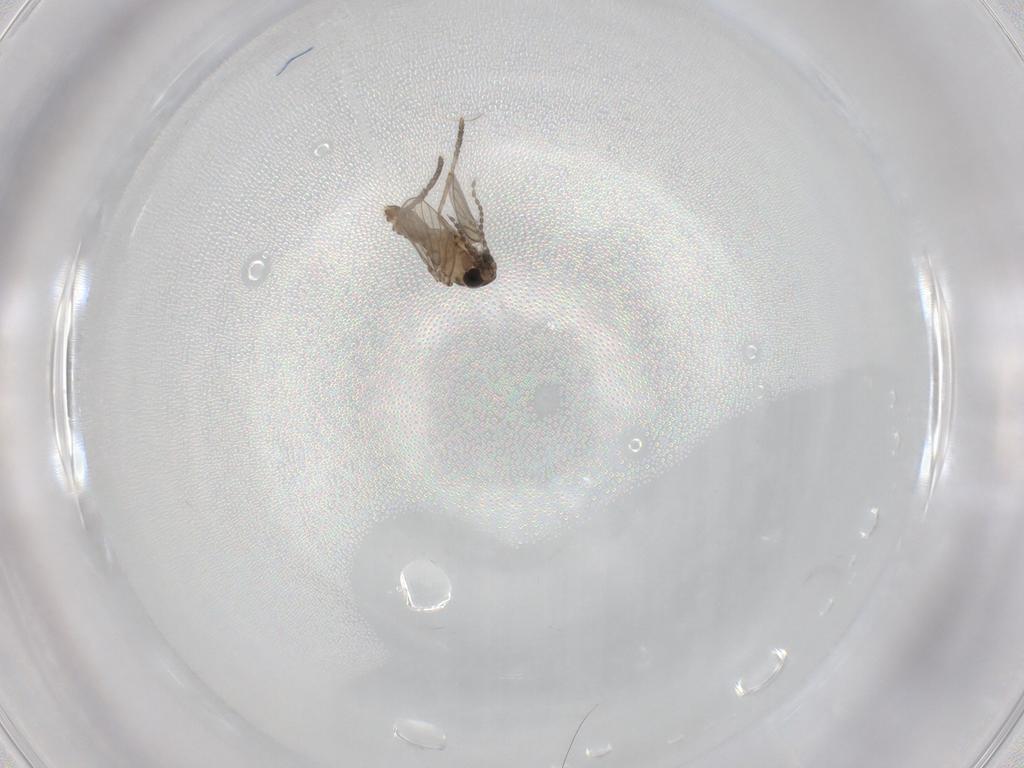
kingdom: Animalia
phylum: Arthropoda
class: Insecta
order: Diptera
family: Psychodidae
